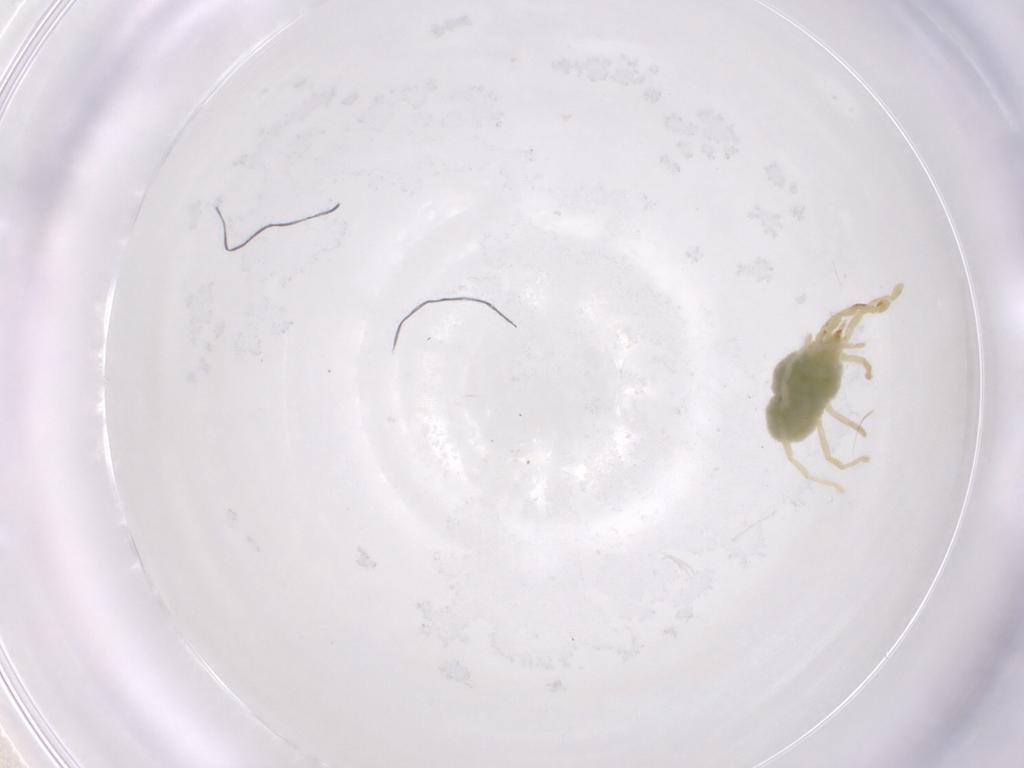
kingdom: Animalia
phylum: Arthropoda
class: Arachnida
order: Trombidiformes
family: Erythraeidae
